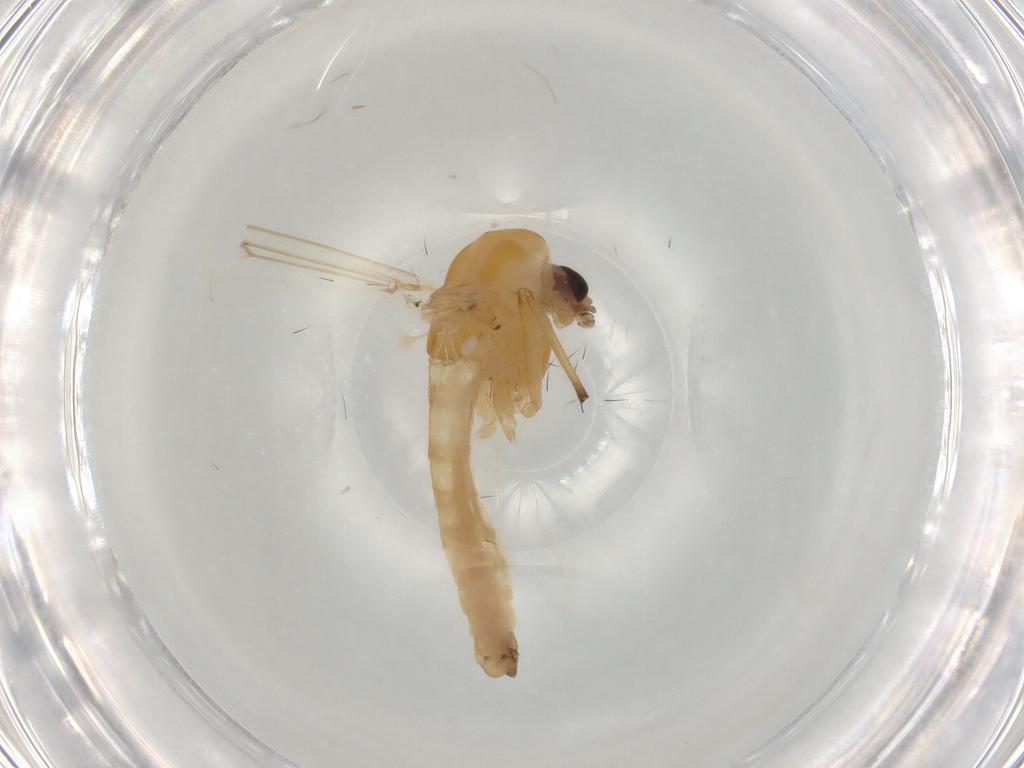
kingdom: Animalia
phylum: Arthropoda
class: Insecta
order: Diptera
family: Chironomidae
